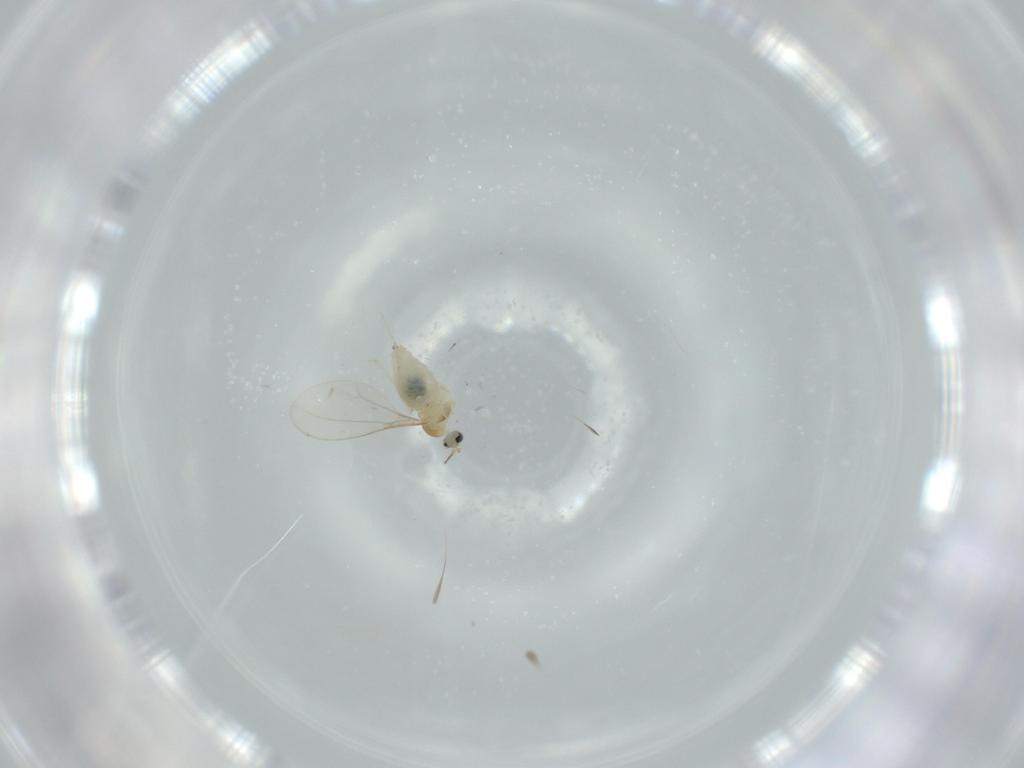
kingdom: Animalia
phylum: Arthropoda
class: Insecta
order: Diptera
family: Cecidomyiidae
